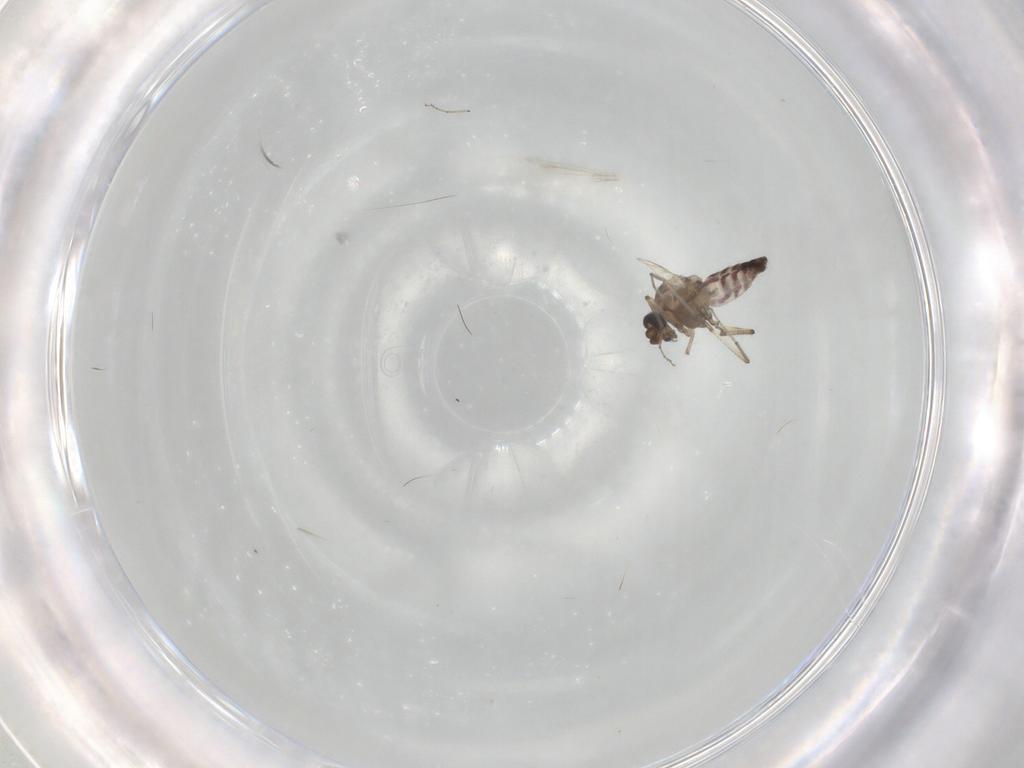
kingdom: Animalia
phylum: Arthropoda
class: Insecta
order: Diptera
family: Ceratopogonidae
